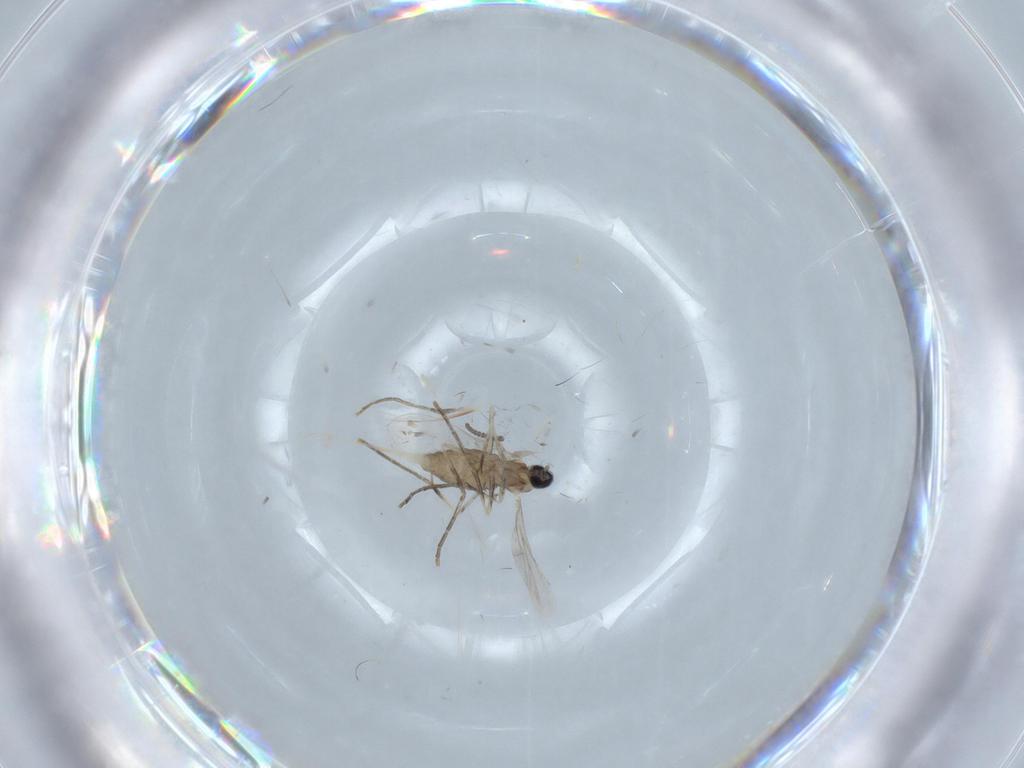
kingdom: Animalia
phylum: Arthropoda
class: Insecta
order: Diptera
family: Cecidomyiidae
